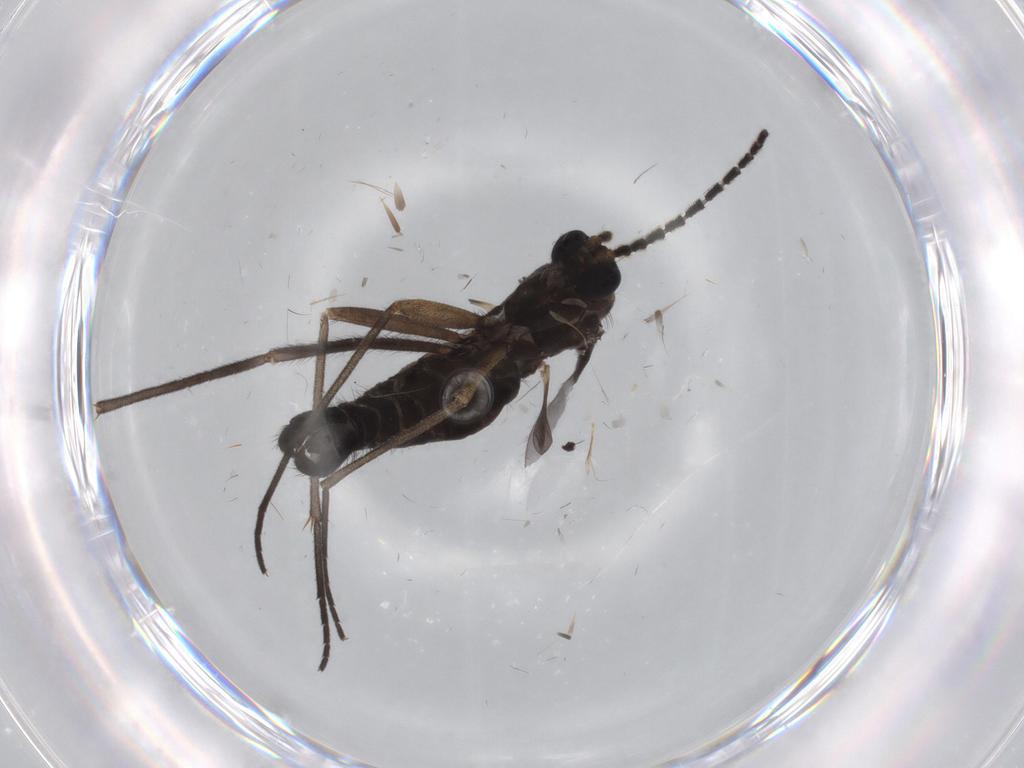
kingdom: Animalia
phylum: Arthropoda
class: Insecta
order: Diptera
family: Sciaridae
